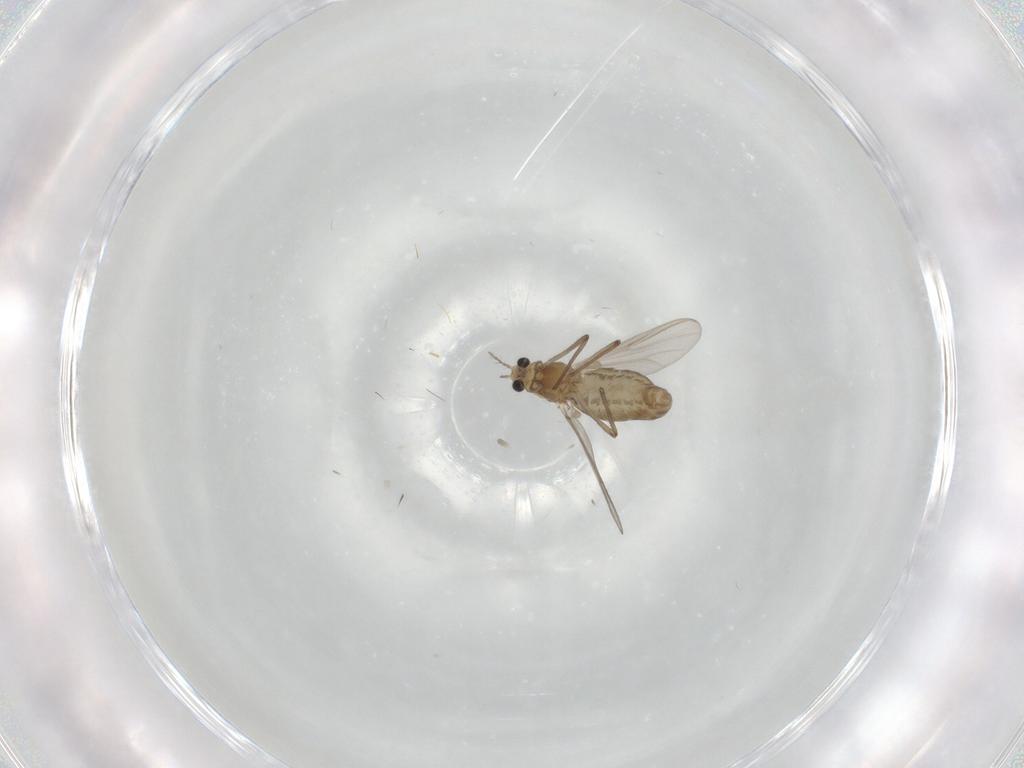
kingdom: Animalia
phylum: Arthropoda
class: Insecta
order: Diptera
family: Chironomidae
